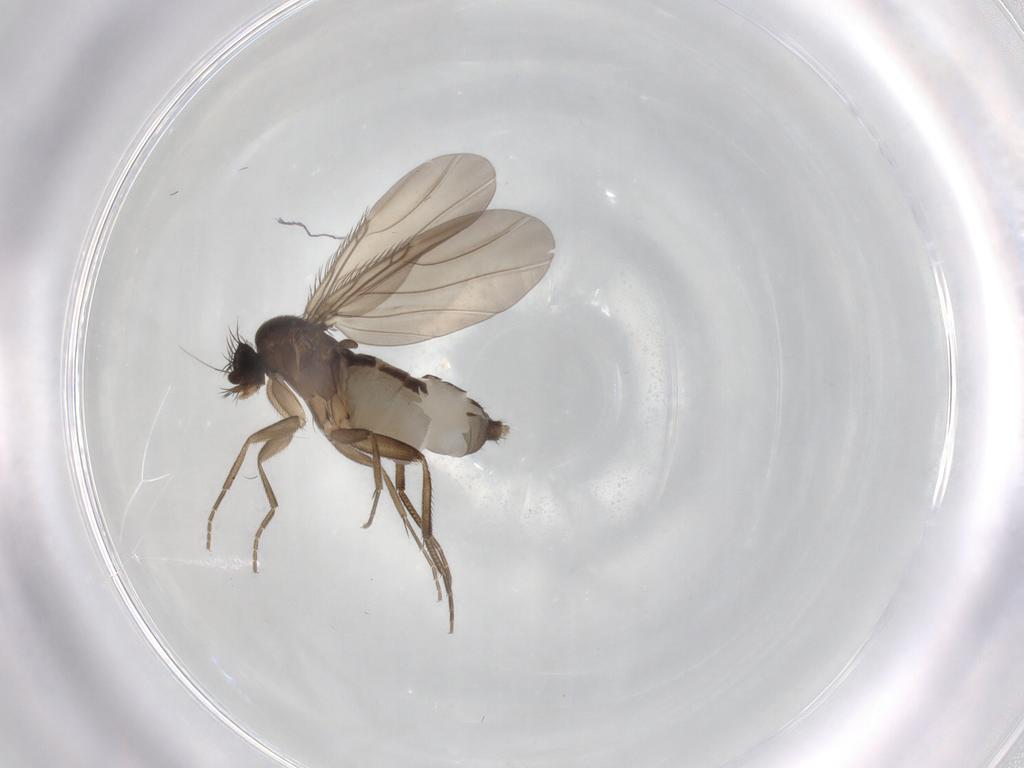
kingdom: Animalia
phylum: Arthropoda
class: Insecta
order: Diptera
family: Phoridae
